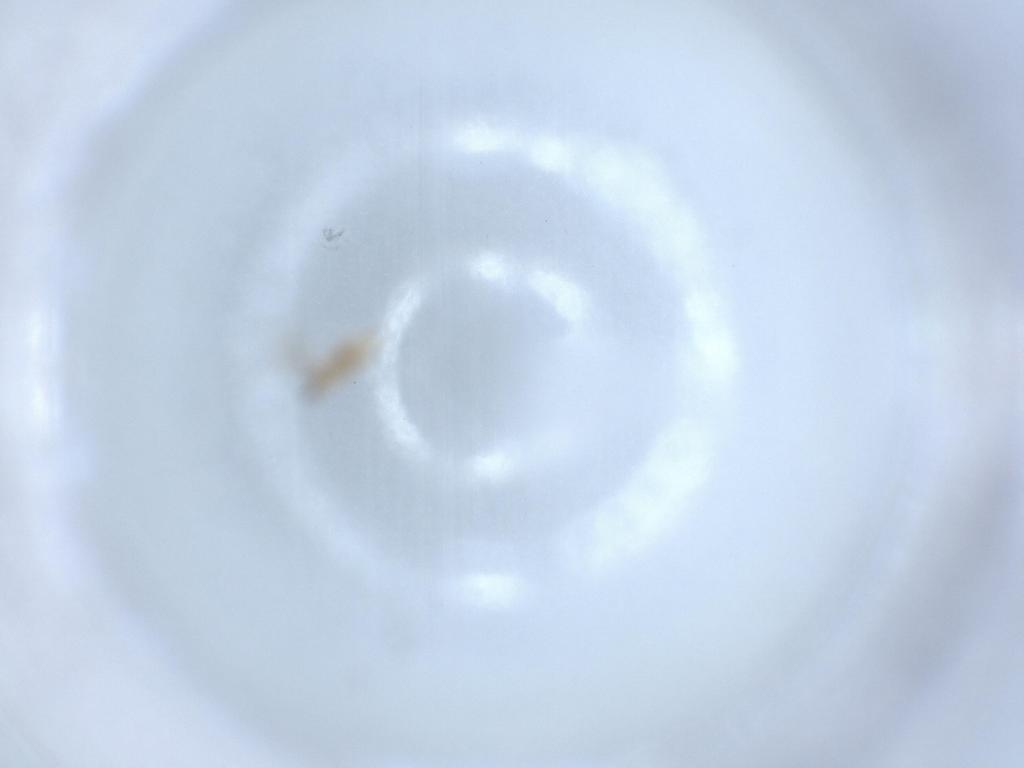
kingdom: Animalia
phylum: Arthropoda
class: Insecta
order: Diptera
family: Cecidomyiidae
